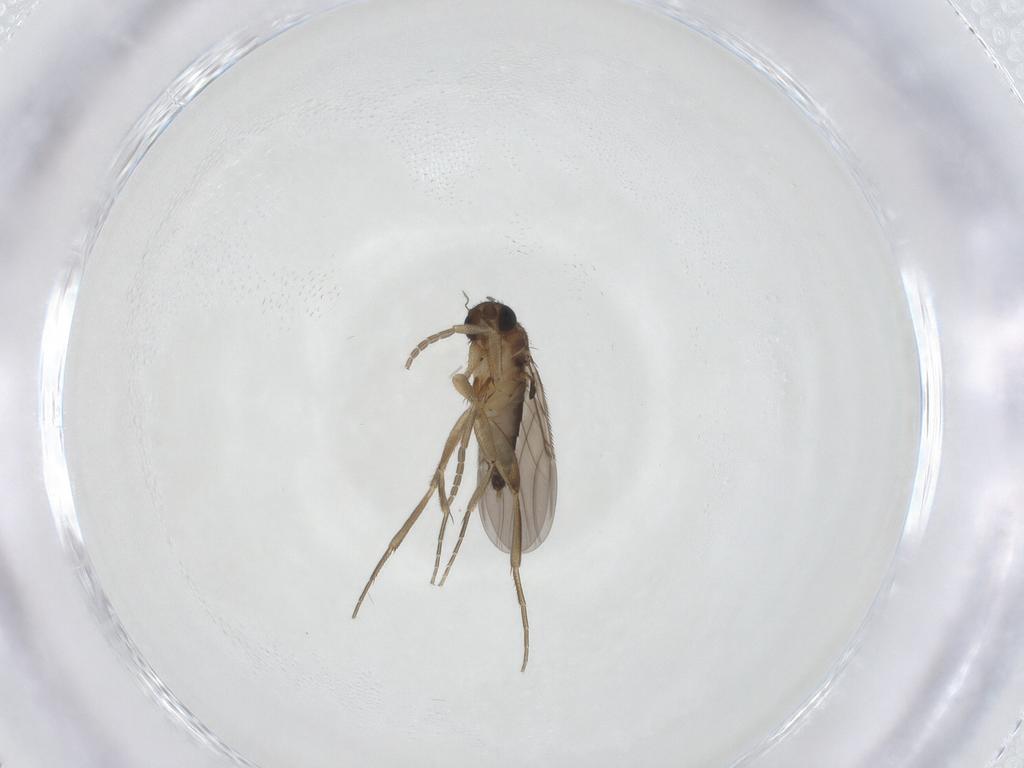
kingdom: Animalia
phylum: Arthropoda
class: Insecta
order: Diptera
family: Phoridae
